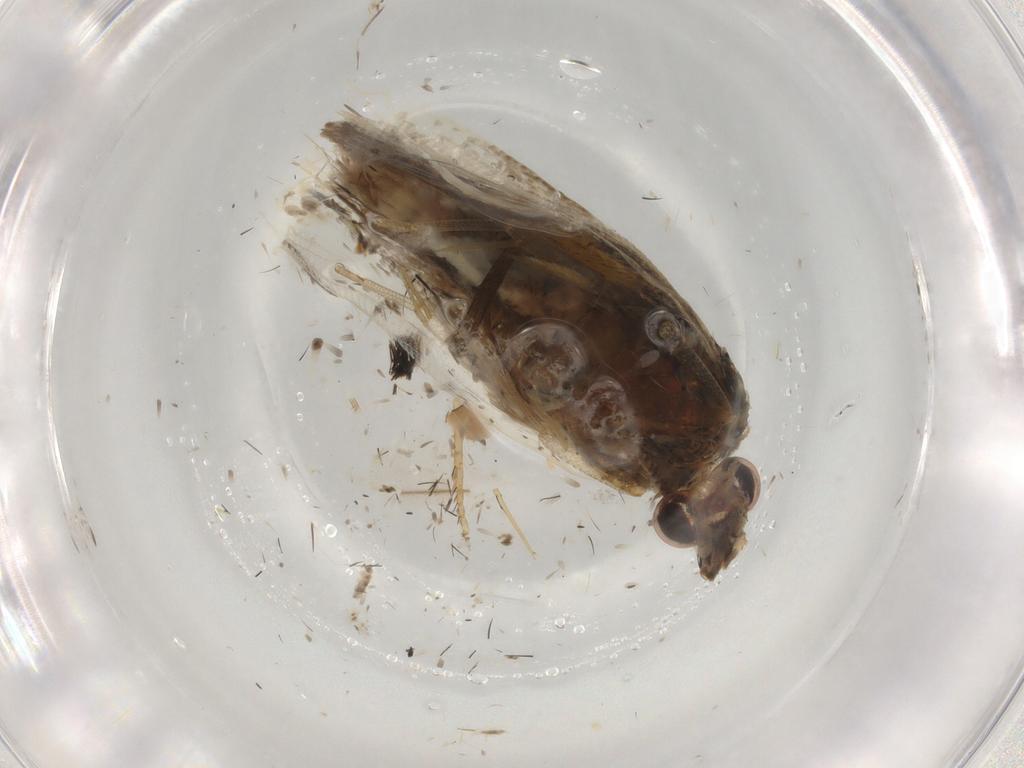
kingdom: Animalia
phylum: Arthropoda
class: Insecta
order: Lepidoptera
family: Tortricidae
